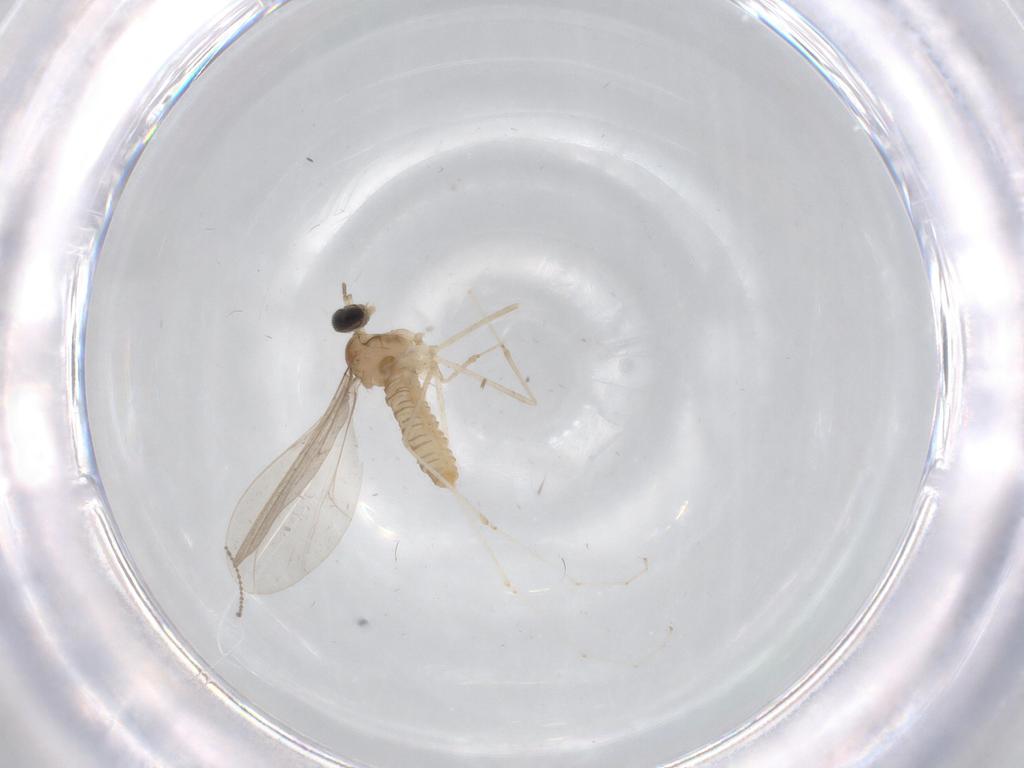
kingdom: Animalia
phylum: Arthropoda
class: Insecta
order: Diptera
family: Cecidomyiidae
